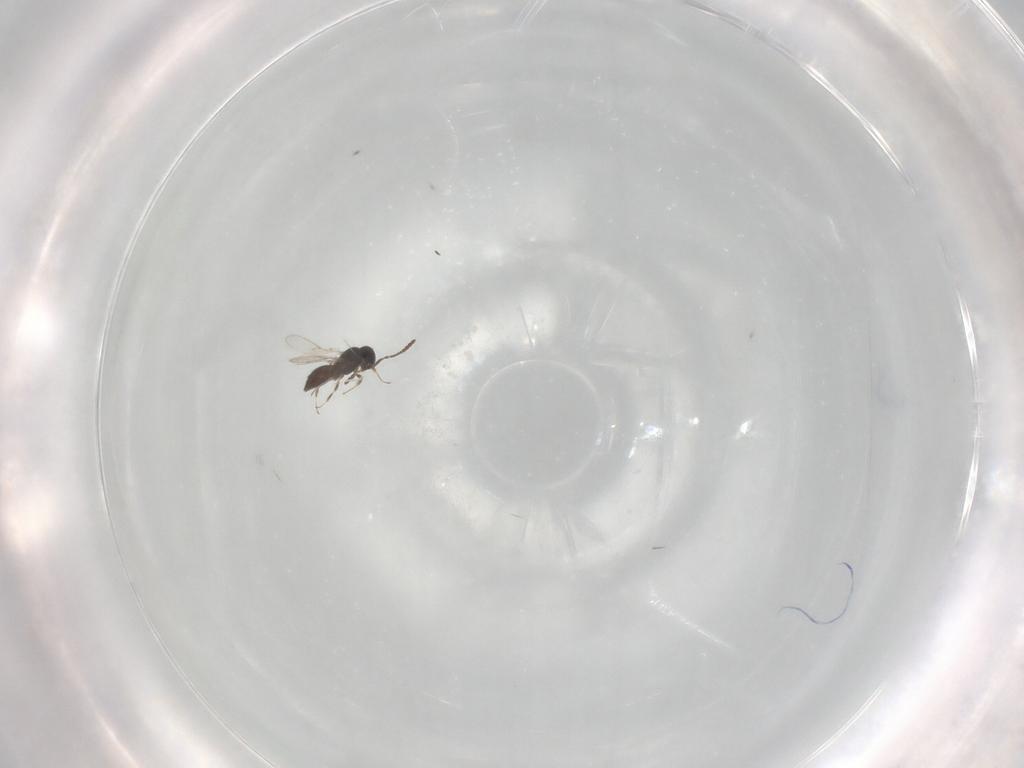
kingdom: Animalia
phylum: Arthropoda
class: Insecta
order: Hymenoptera
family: Scelionidae
